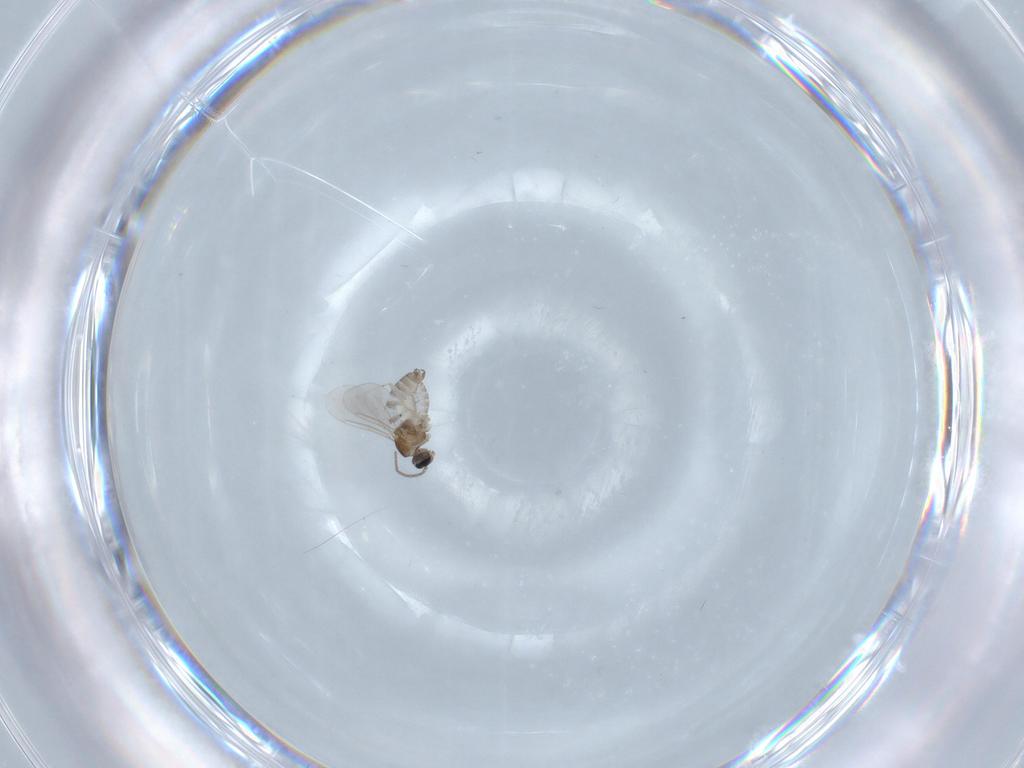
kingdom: Animalia
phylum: Arthropoda
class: Insecta
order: Diptera
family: Cecidomyiidae
